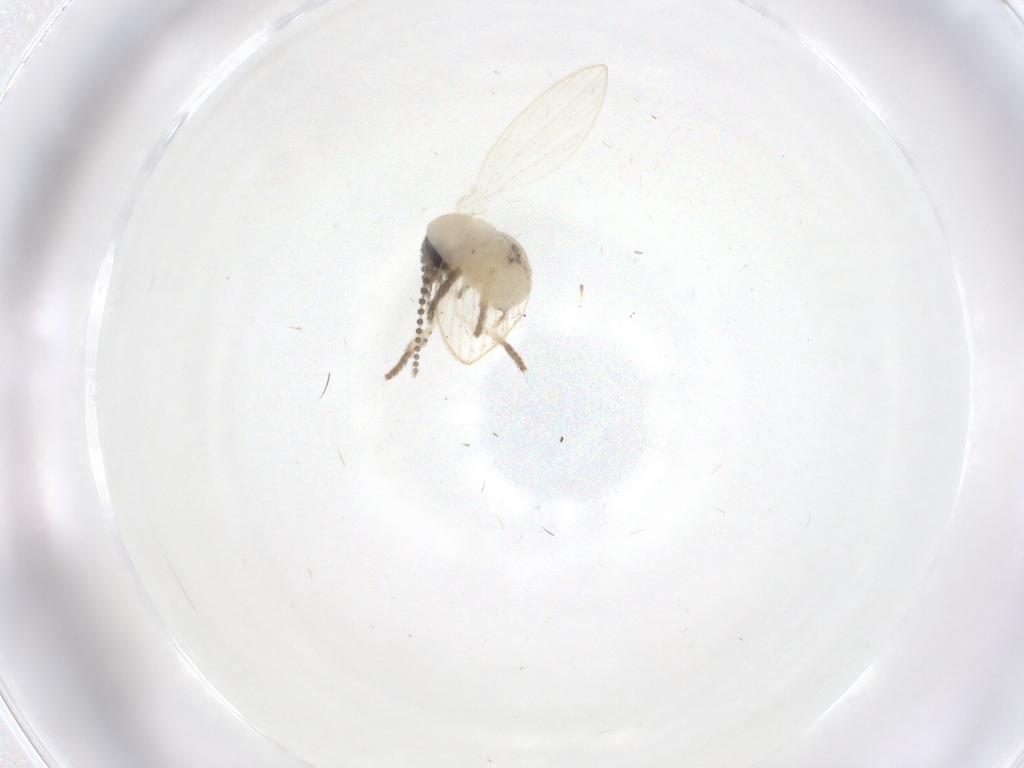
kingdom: Animalia
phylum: Arthropoda
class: Insecta
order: Diptera
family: Psychodidae
